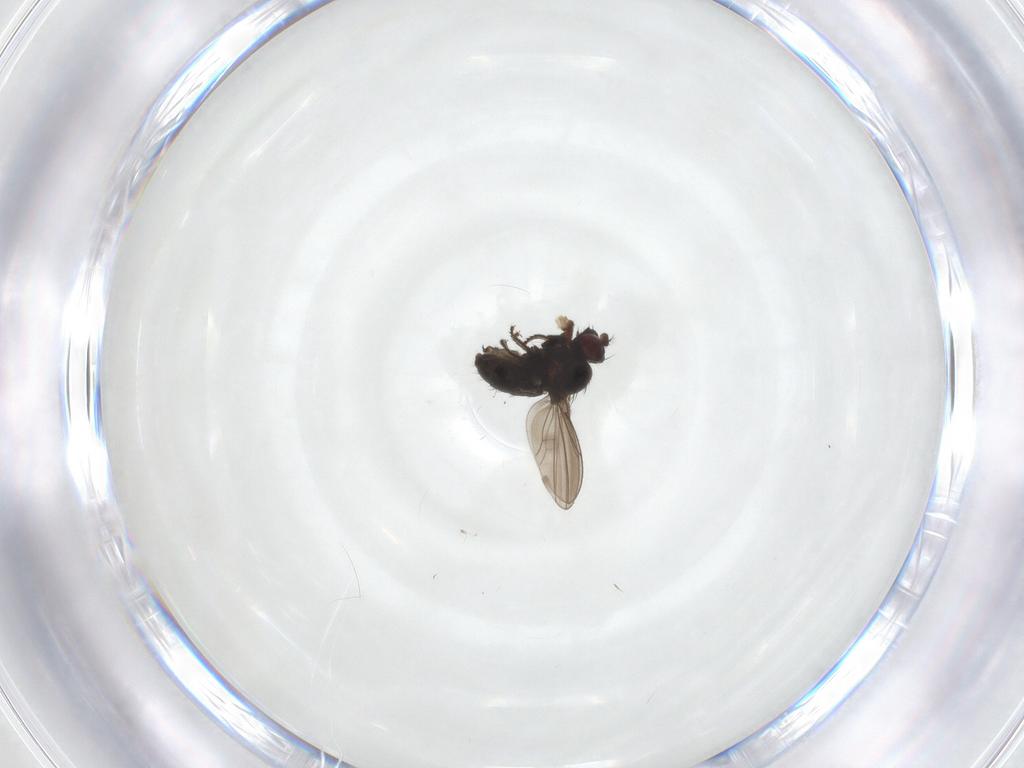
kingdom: Animalia
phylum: Arthropoda
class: Insecta
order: Diptera
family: Ephydridae
